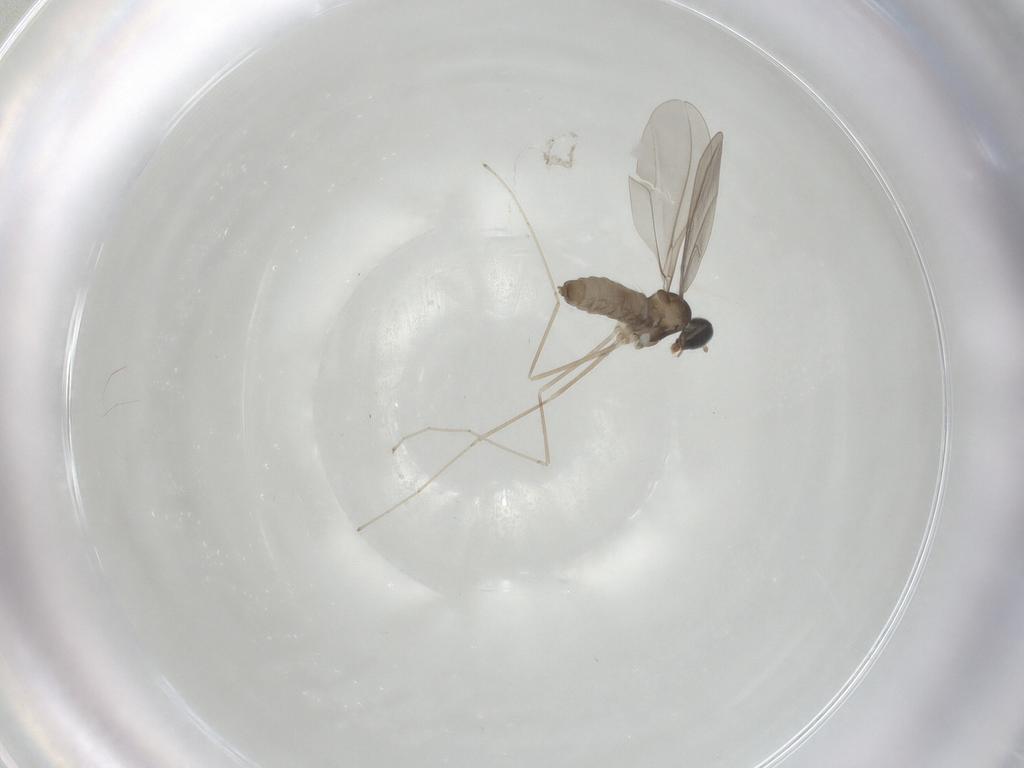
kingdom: Animalia
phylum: Arthropoda
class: Insecta
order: Diptera
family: Cecidomyiidae
